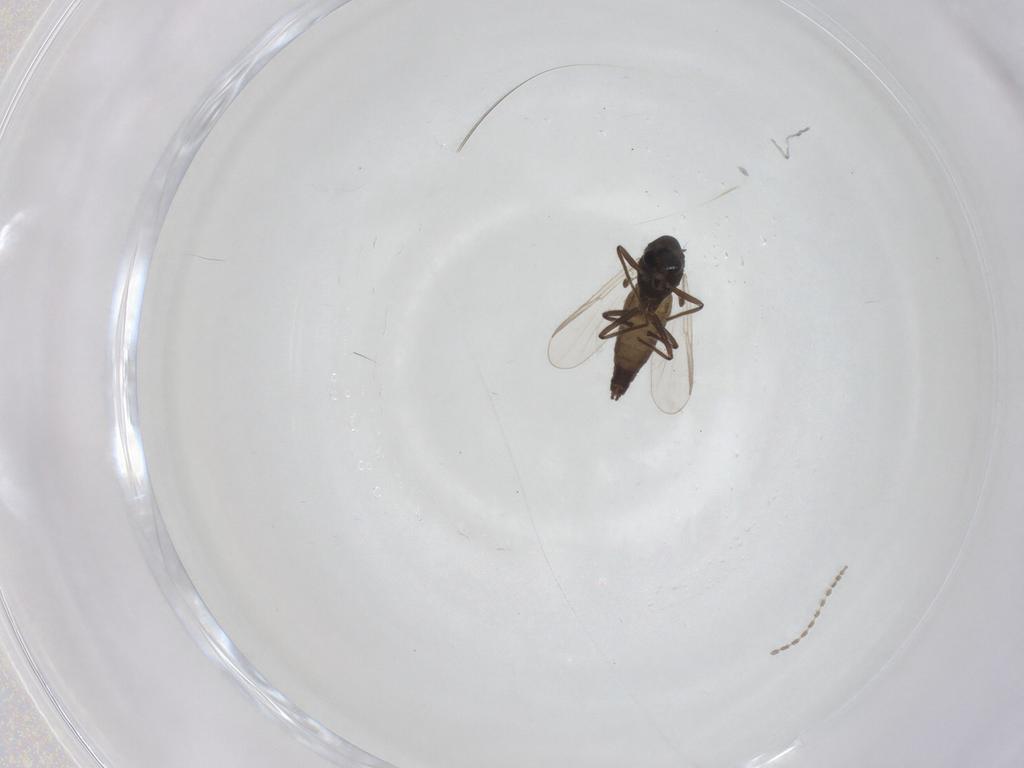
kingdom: Animalia
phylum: Arthropoda
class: Insecta
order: Diptera
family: Chironomidae
